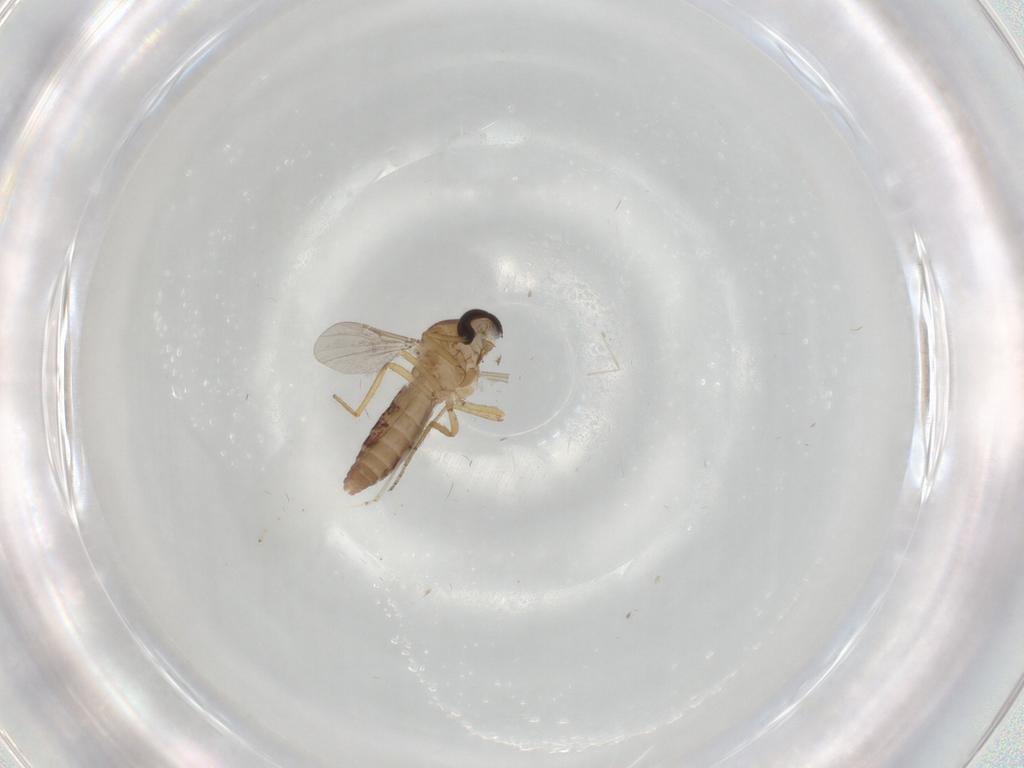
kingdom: Animalia
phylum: Arthropoda
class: Insecta
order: Diptera
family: Ceratopogonidae
